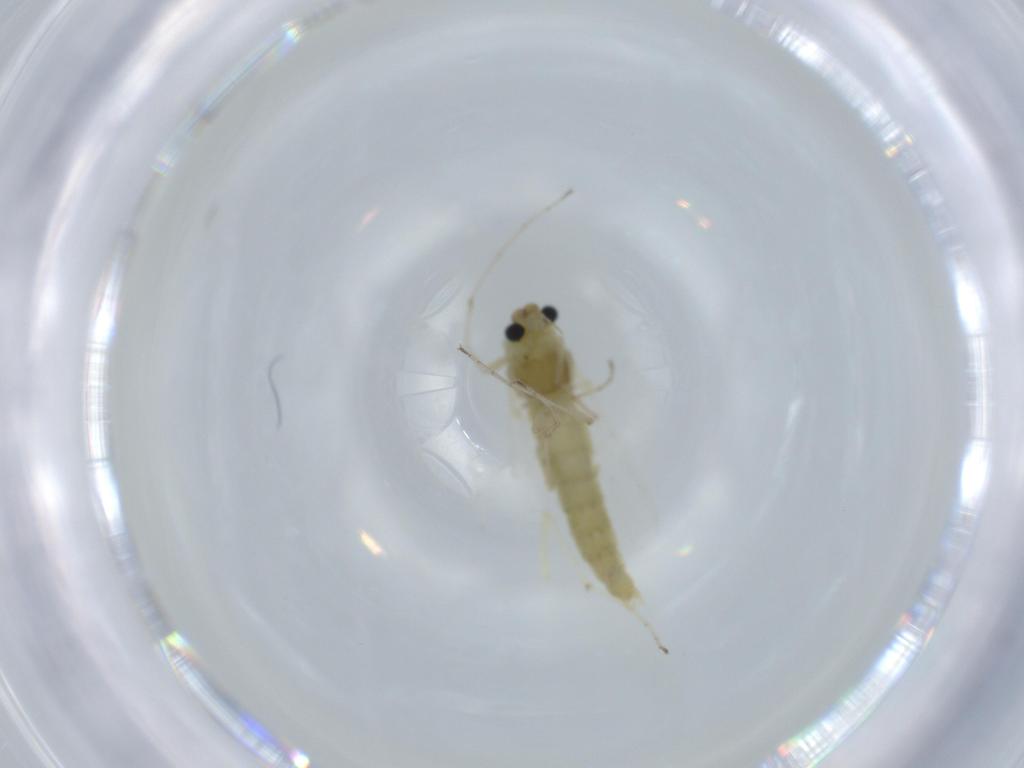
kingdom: Animalia
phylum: Arthropoda
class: Insecta
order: Diptera
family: Chironomidae
